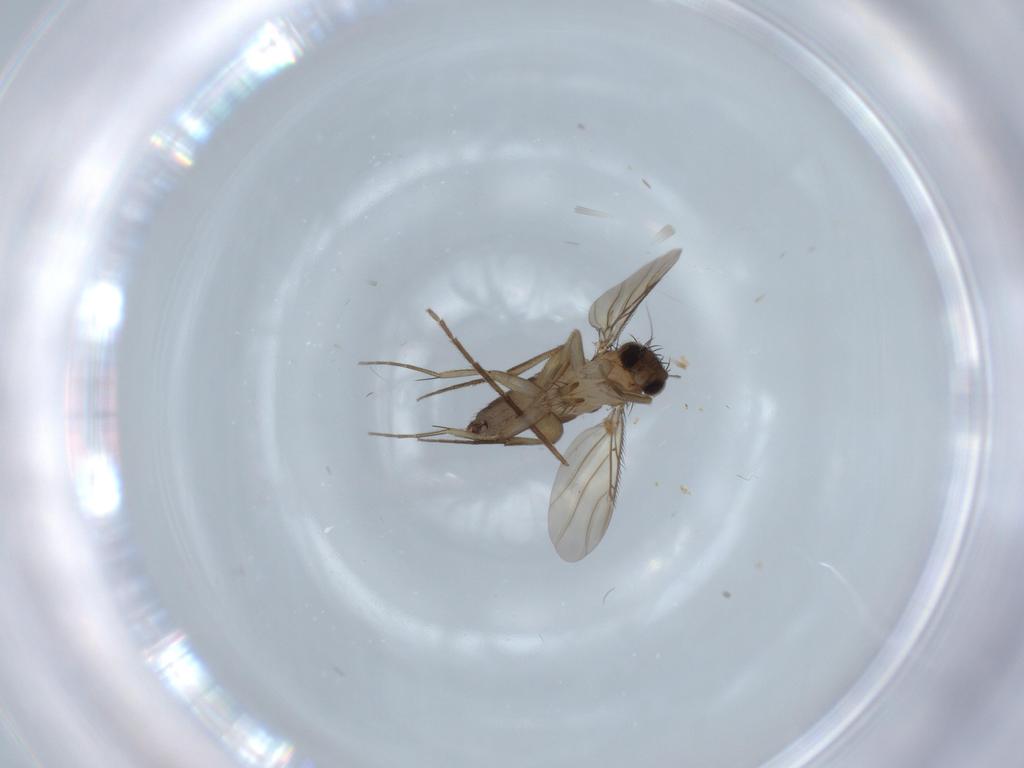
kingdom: Animalia
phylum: Arthropoda
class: Insecta
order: Diptera
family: Phoridae
